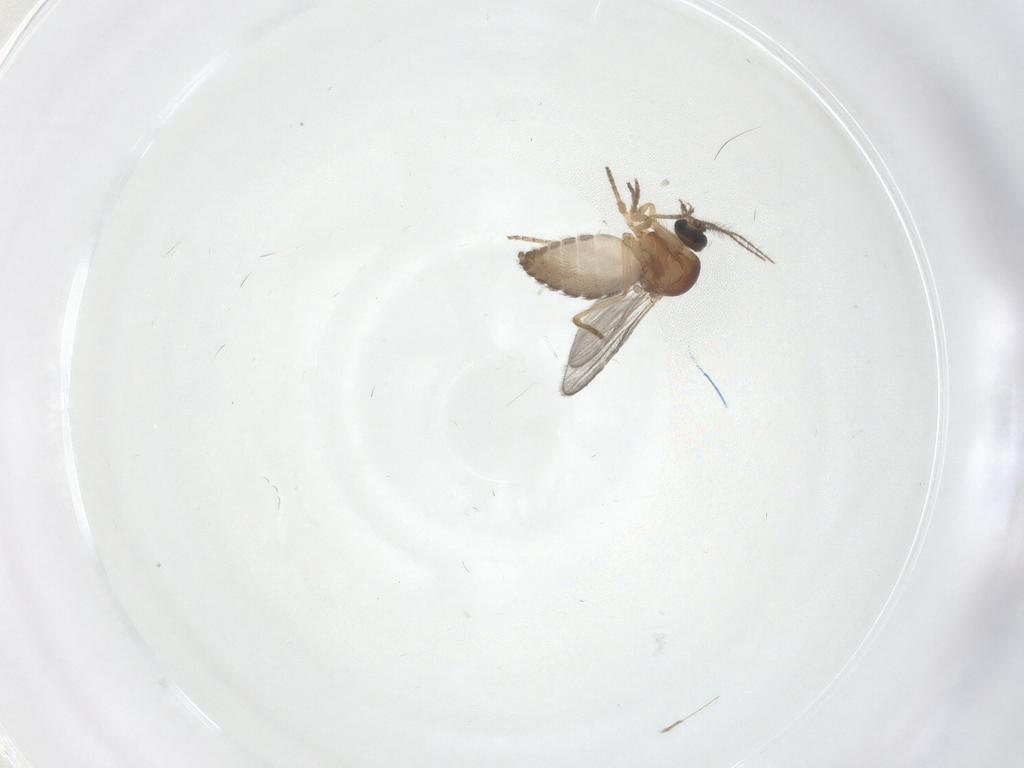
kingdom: Animalia
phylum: Arthropoda
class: Insecta
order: Diptera
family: Ceratopogonidae
